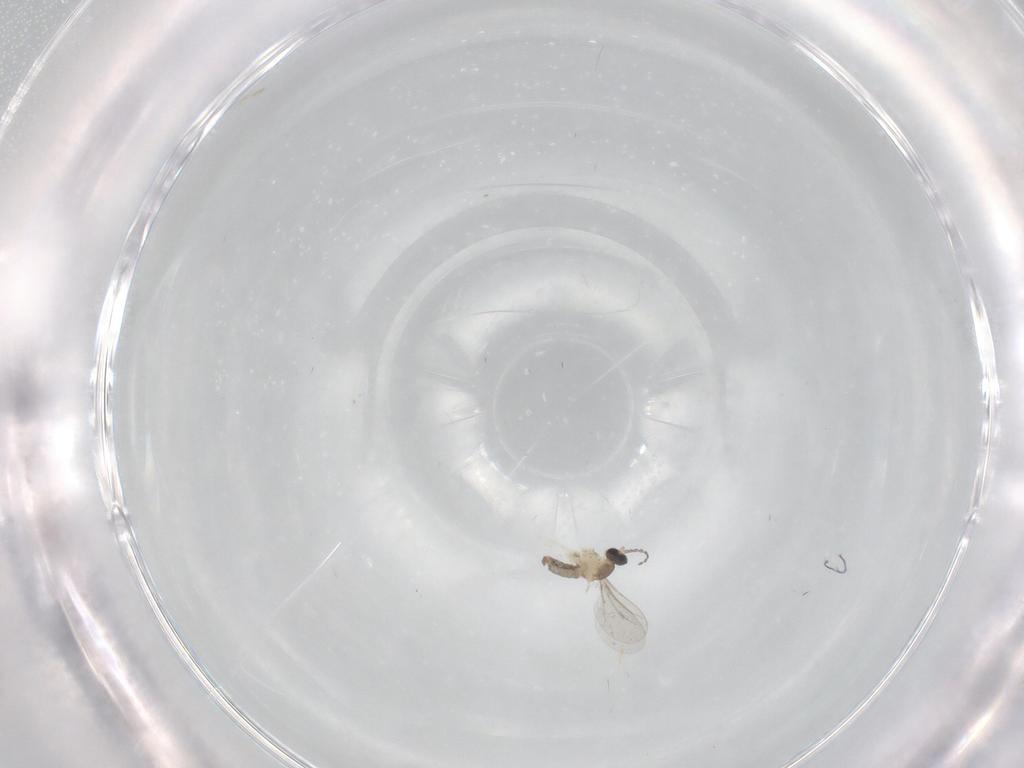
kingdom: Animalia
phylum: Arthropoda
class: Insecta
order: Diptera
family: Cecidomyiidae
